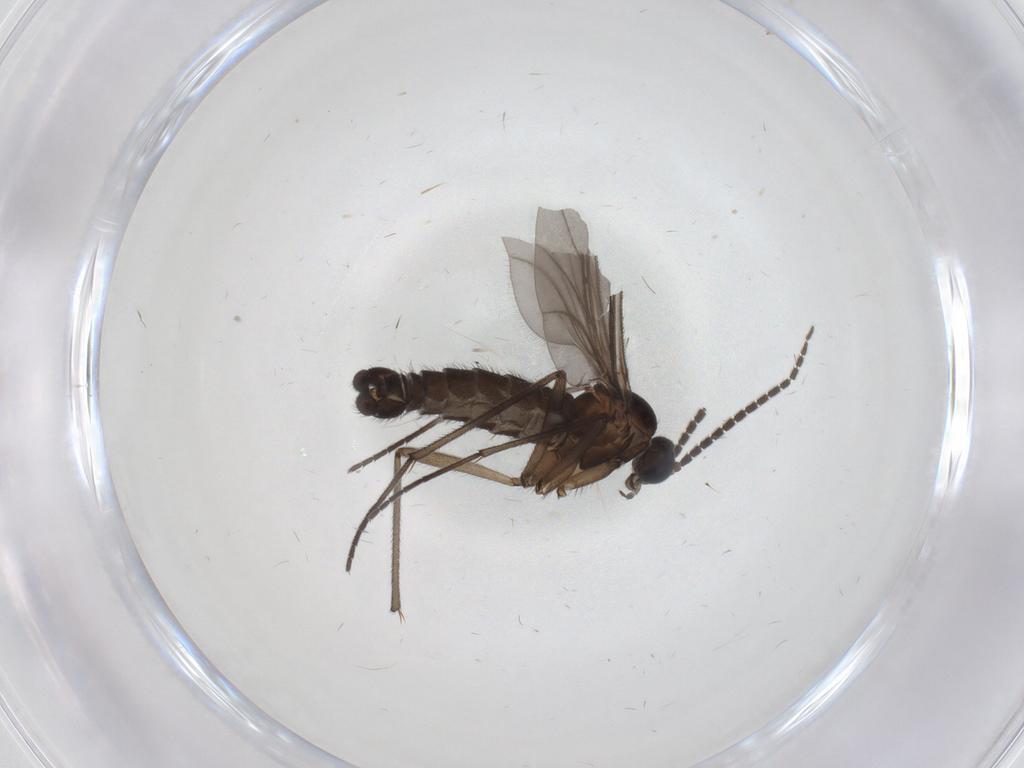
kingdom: Animalia
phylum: Arthropoda
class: Insecta
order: Diptera
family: Sciaridae
